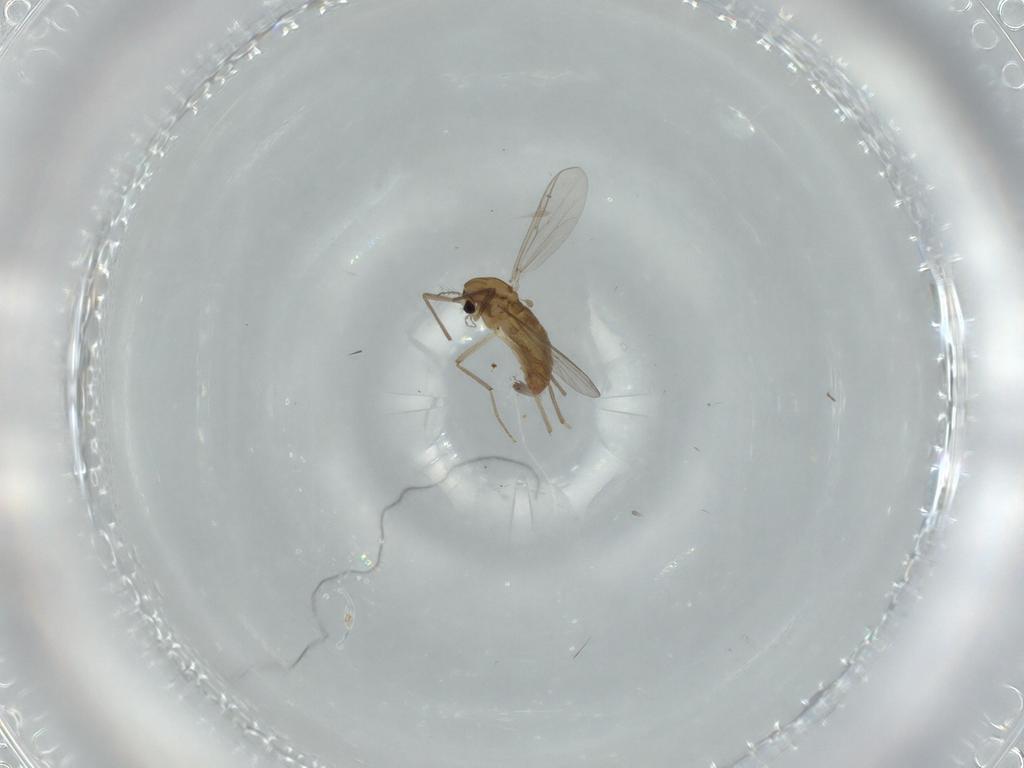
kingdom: Animalia
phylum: Arthropoda
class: Insecta
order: Diptera
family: Chironomidae
